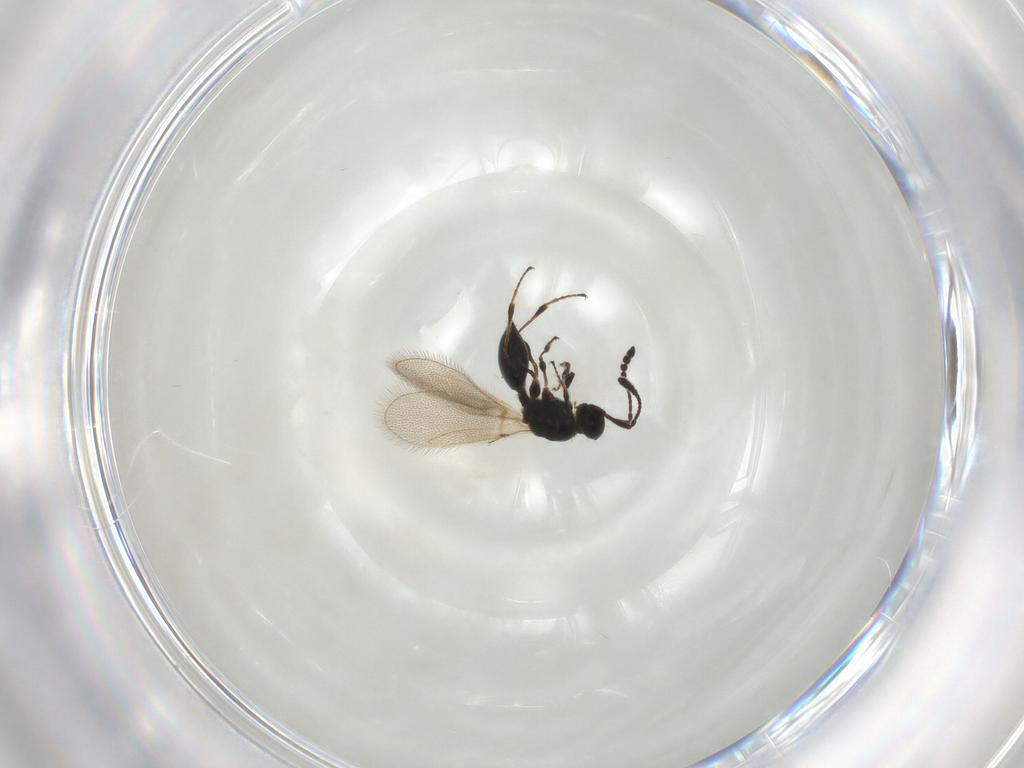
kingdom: Animalia
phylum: Arthropoda
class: Insecta
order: Hymenoptera
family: Diapriidae
